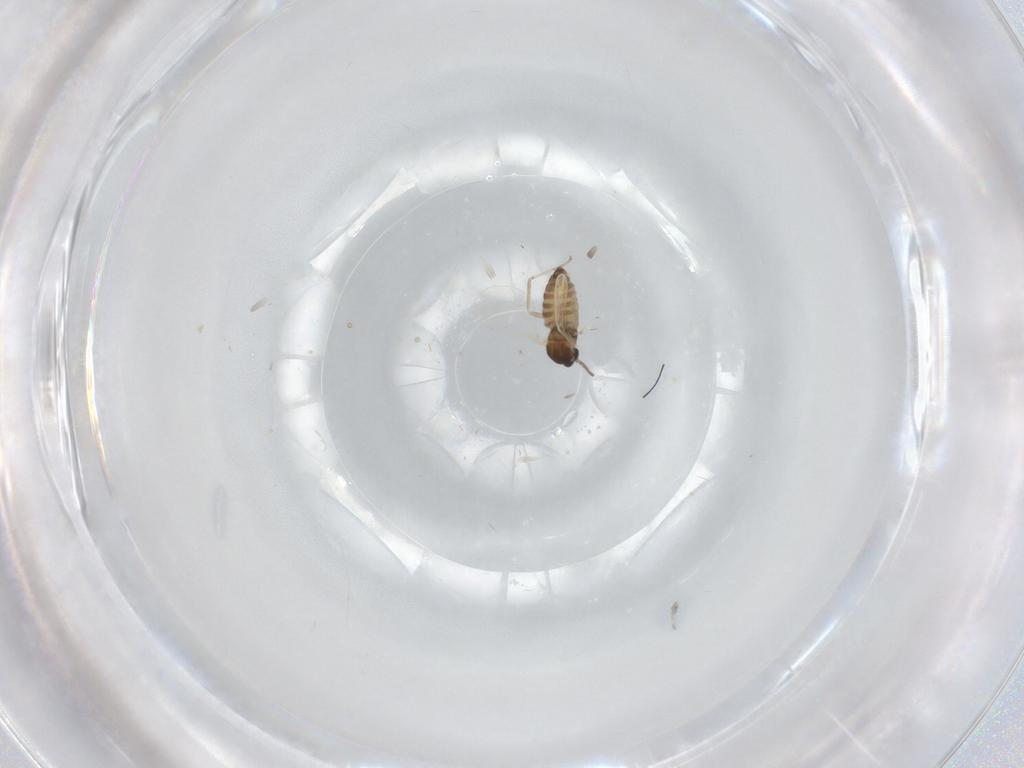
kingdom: Animalia
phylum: Arthropoda
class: Insecta
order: Diptera
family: Cecidomyiidae
